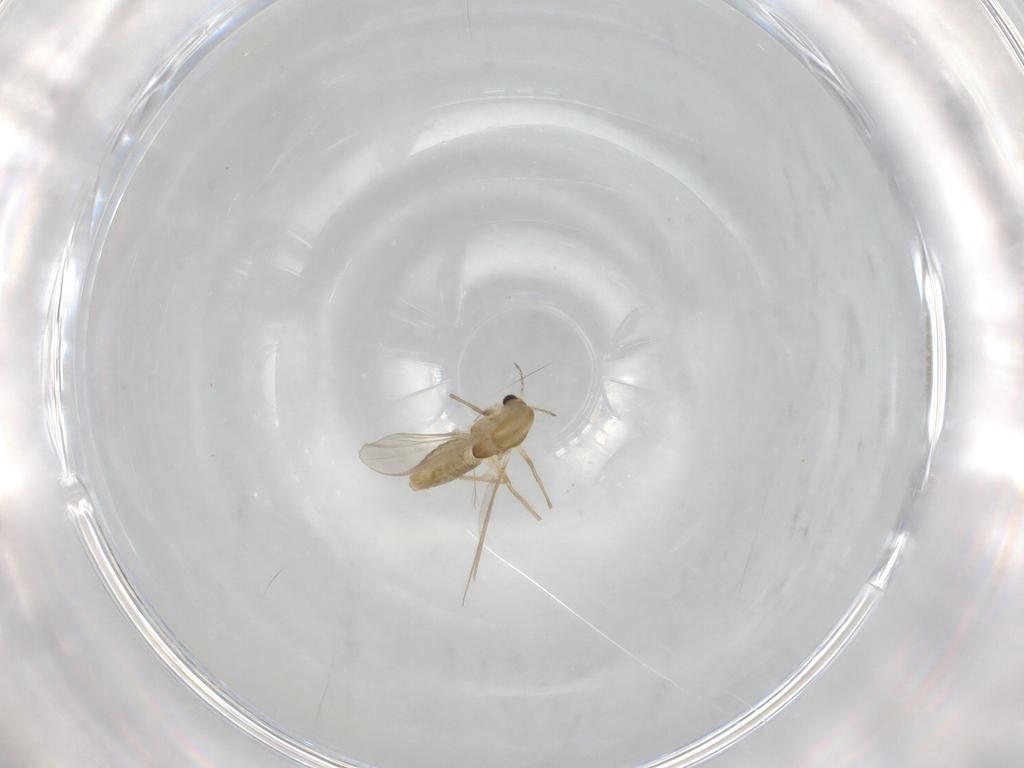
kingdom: Animalia
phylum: Arthropoda
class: Insecta
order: Diptera
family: Chironomidae
